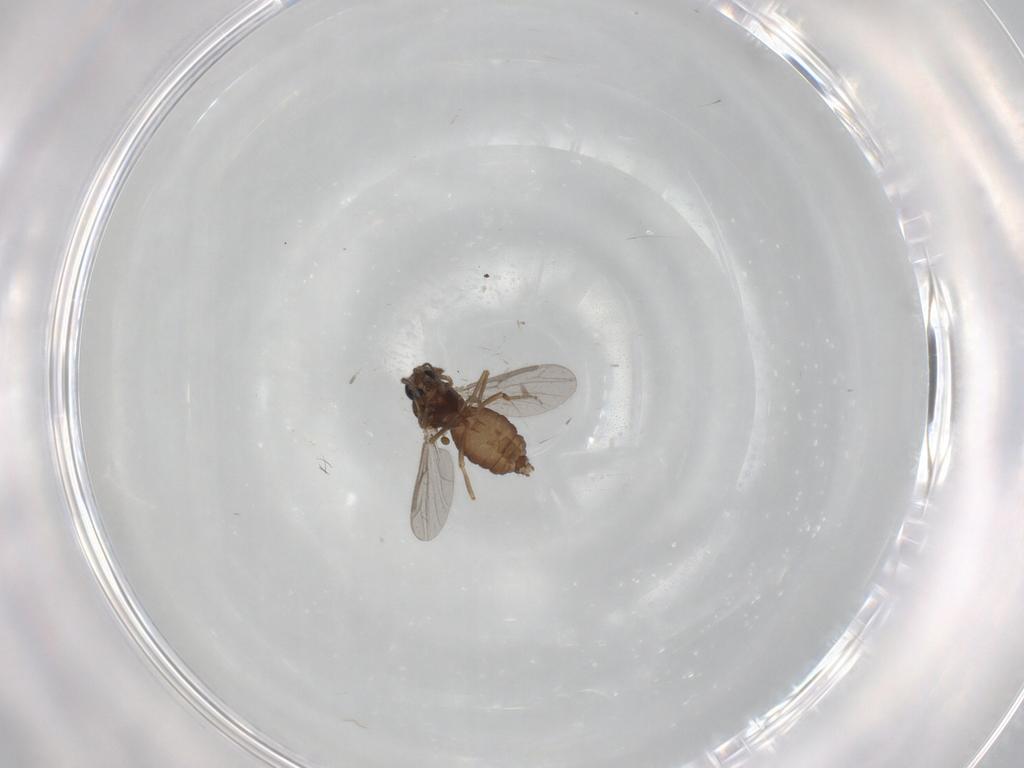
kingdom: Animalia
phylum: Arthropoda
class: Insecta
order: Diptera
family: Ceratopogonidae
